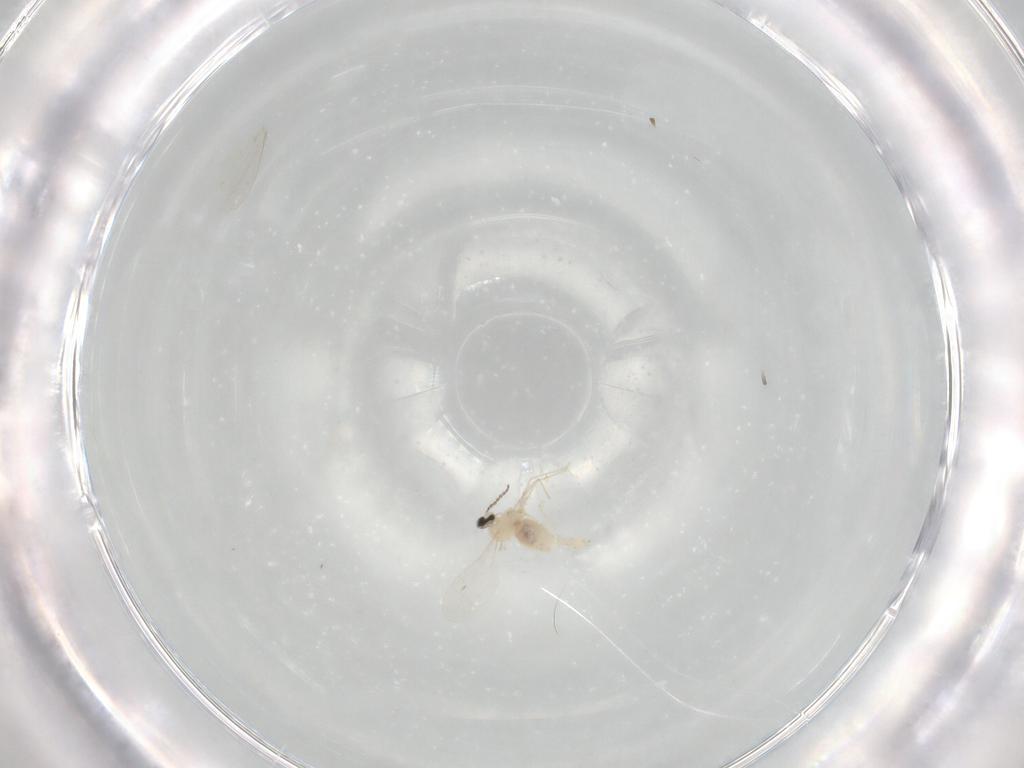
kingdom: Animalia
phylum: Arthropoda
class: Insecta
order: Diptera
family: Cecidomyiidae
